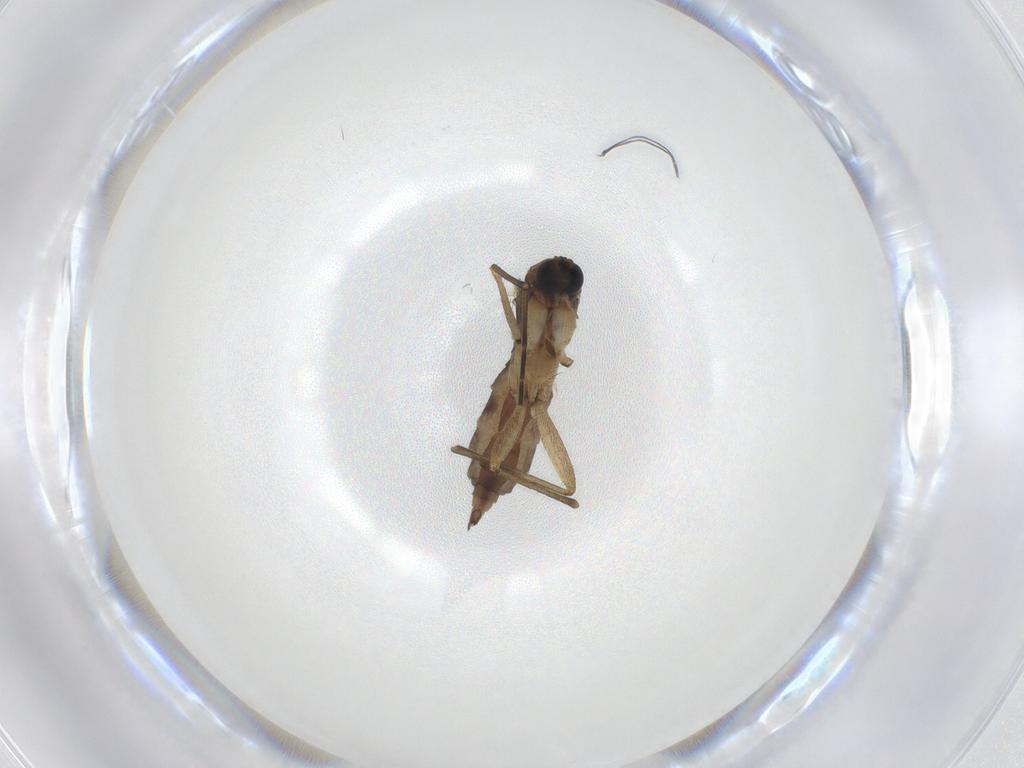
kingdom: Animalia
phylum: Arthropoda
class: Insecta
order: Diptera
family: Sciaridae
